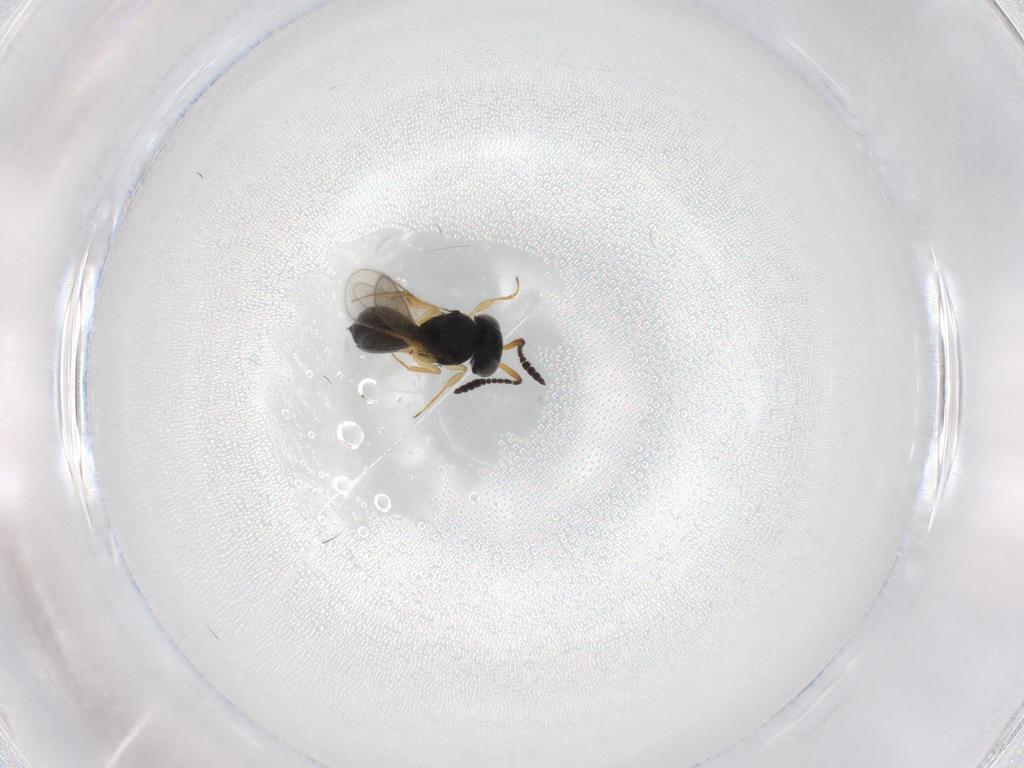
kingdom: Animalia
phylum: Arthropoda
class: Insecta
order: Hymenoptera
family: Scelionidae
